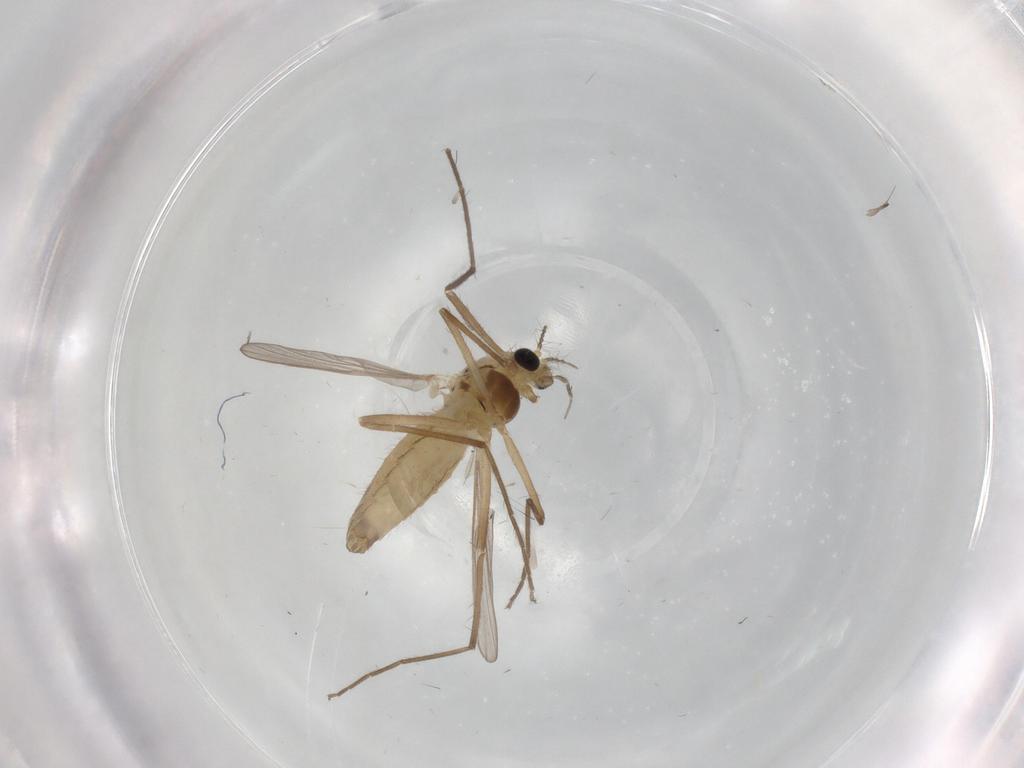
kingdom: Animalia
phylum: Arthropoda
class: Insecta
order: Diptera
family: Chironomidae
